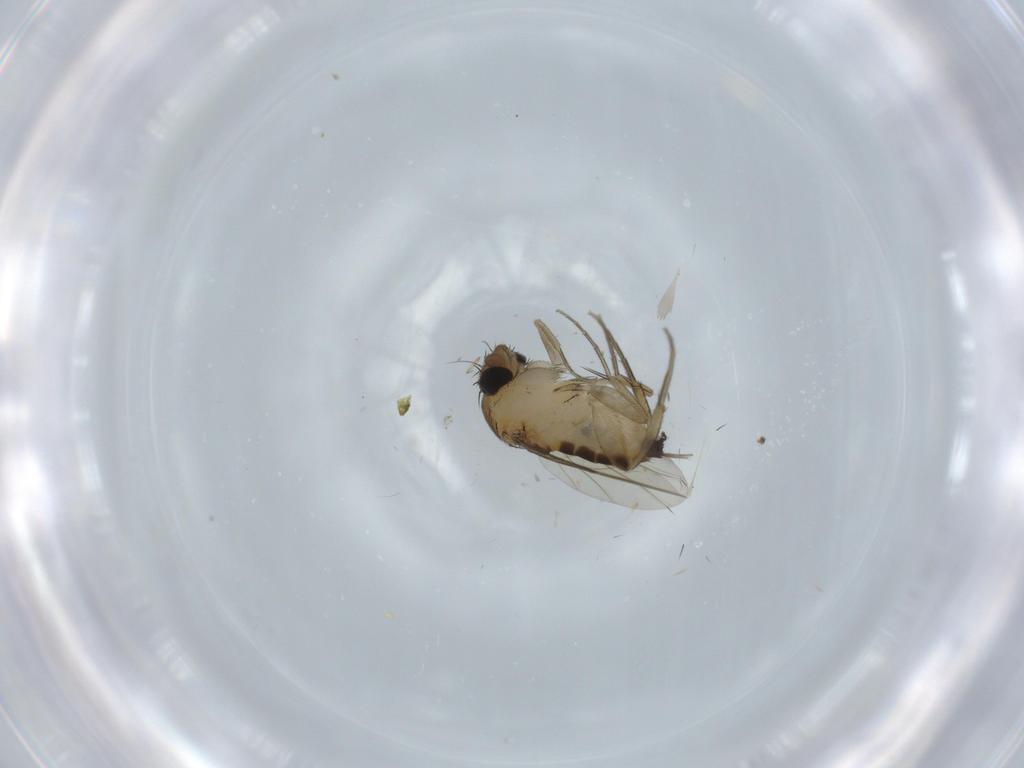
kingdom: Animalia
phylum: Arthropoda
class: Insecta
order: Diptera
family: Phoridae
